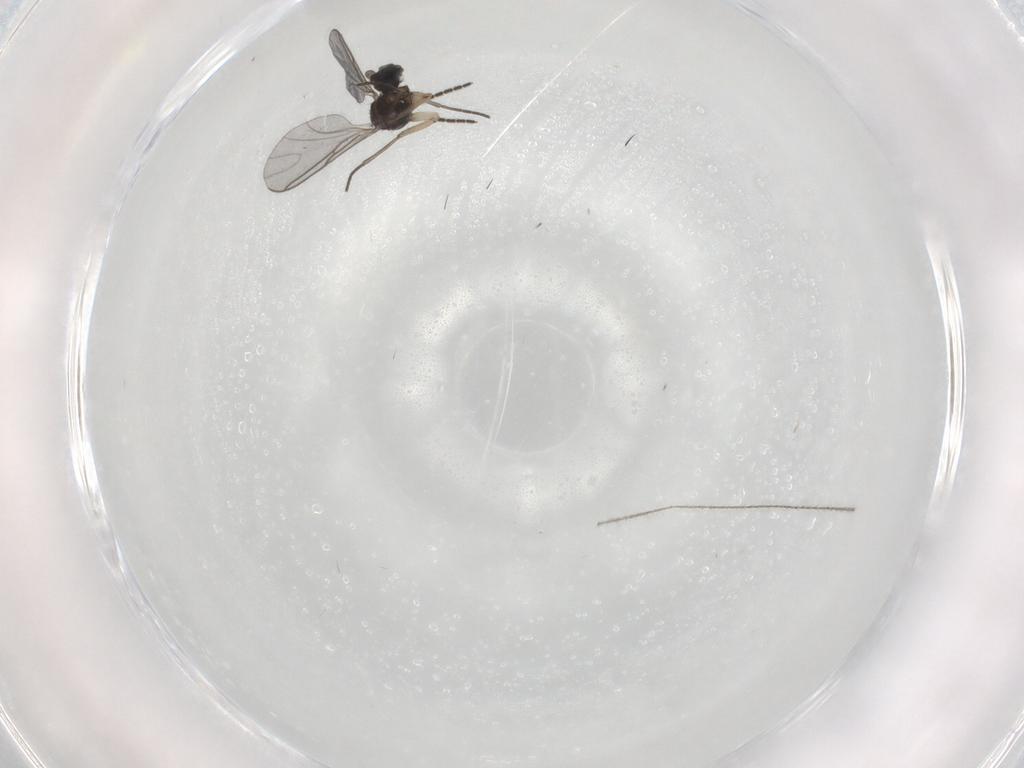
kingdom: Animalia
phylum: Arthropoda
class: Insecta
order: Diptera
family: Sciaridae
